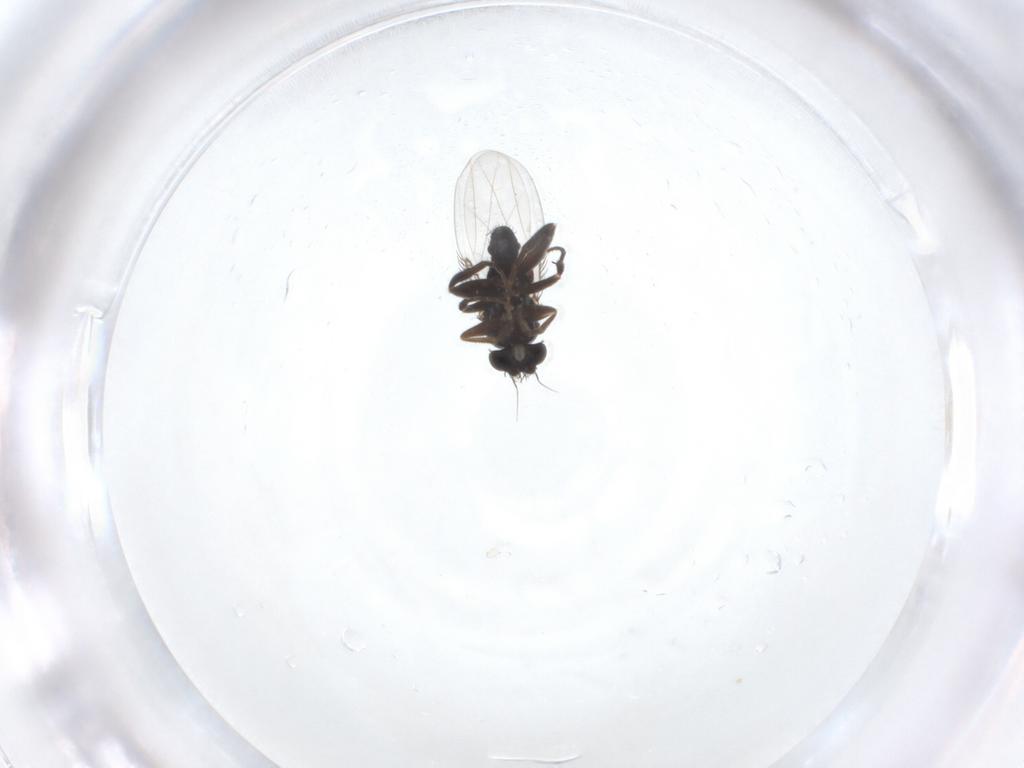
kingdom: Animalia
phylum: Arthropoda
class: Insecta
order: Diptera
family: Phoridae
